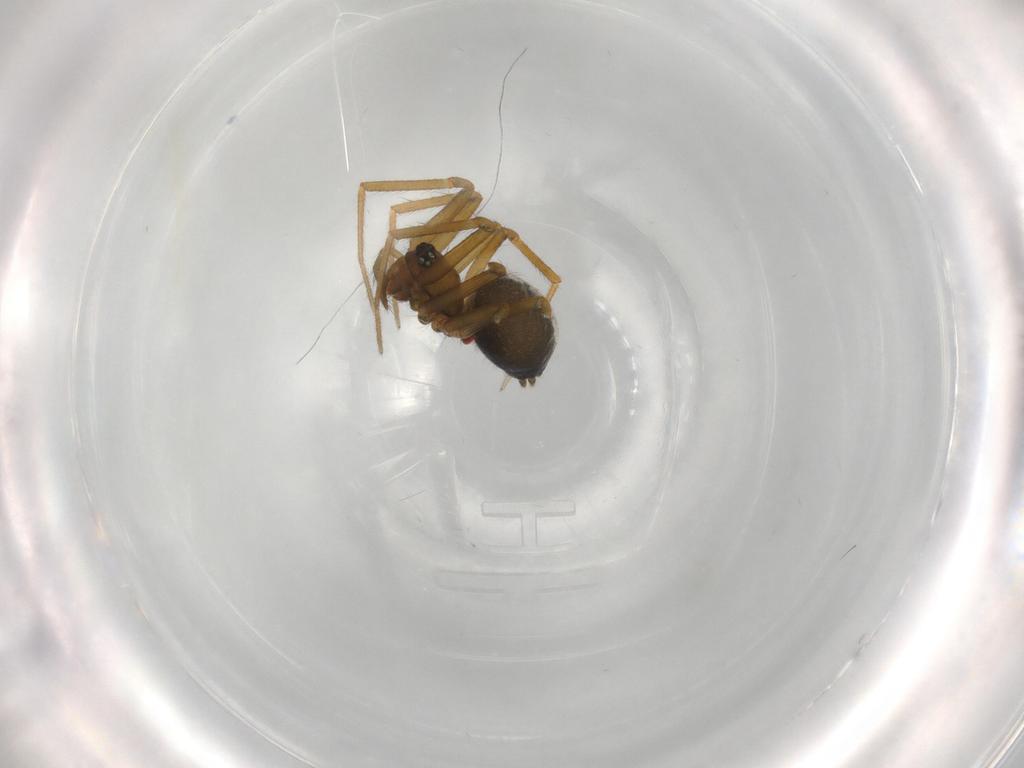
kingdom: Animalia
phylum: Arthropoda
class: Arachnida
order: Araneae
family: Linyphiidae
